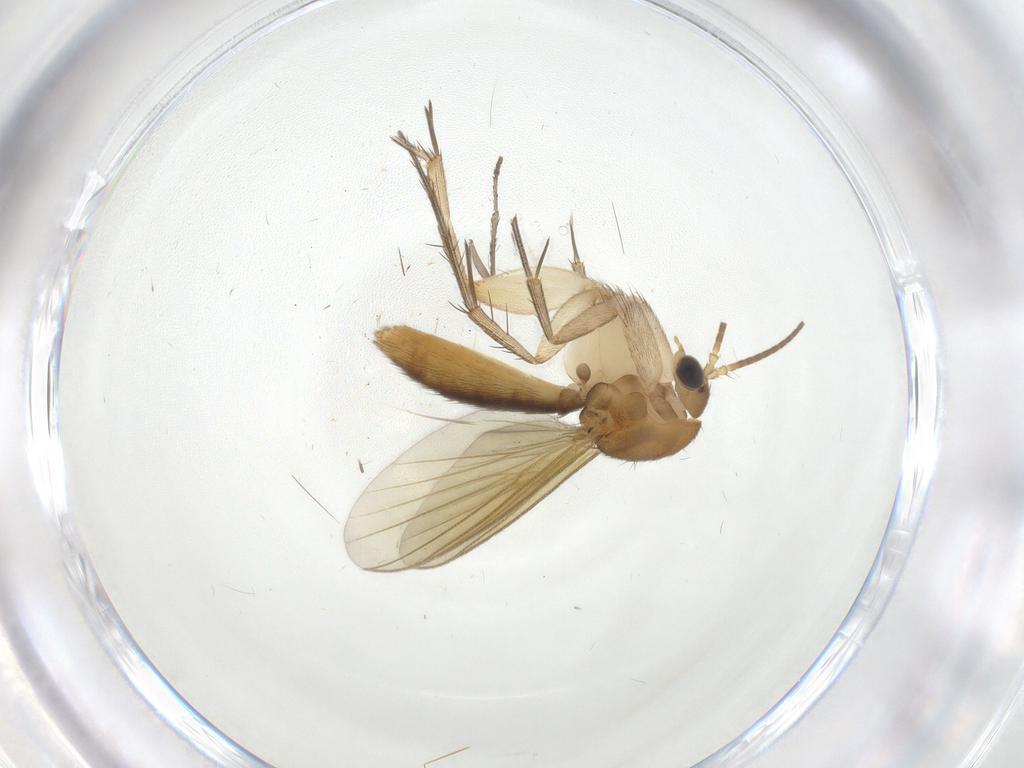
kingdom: Animalia
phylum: Arthropoda
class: Insecta
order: Diptera
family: Mycetophilidae
